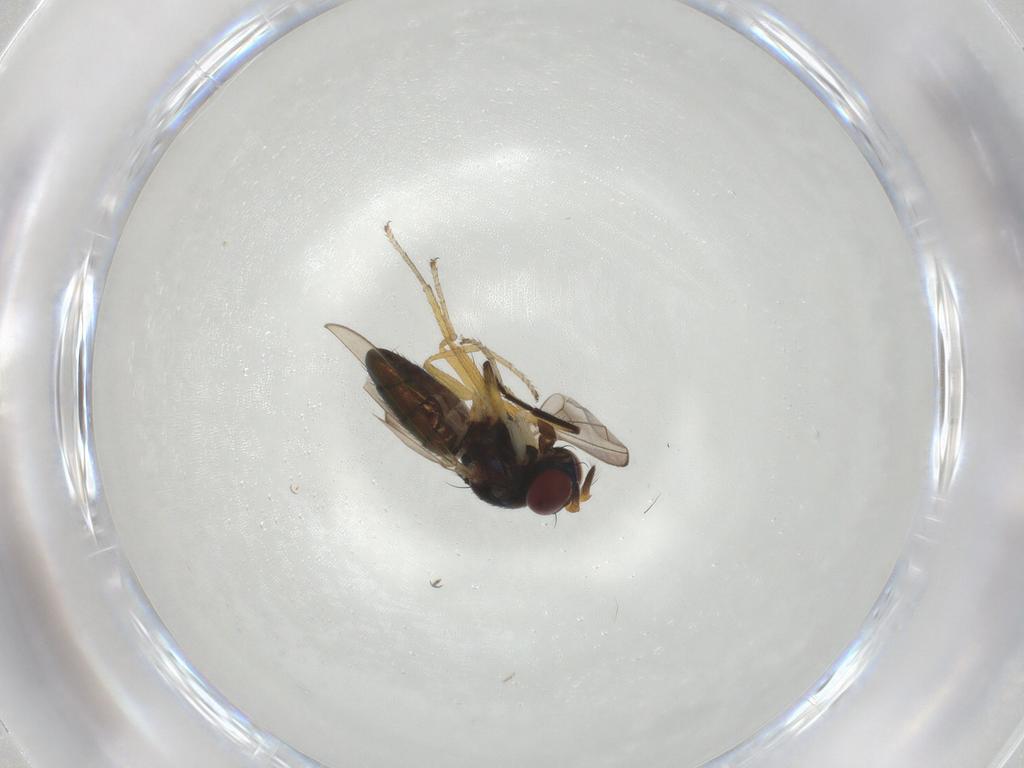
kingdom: Animalia
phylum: Arthropoda
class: Insecta
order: Diptera
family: Ephydridae
